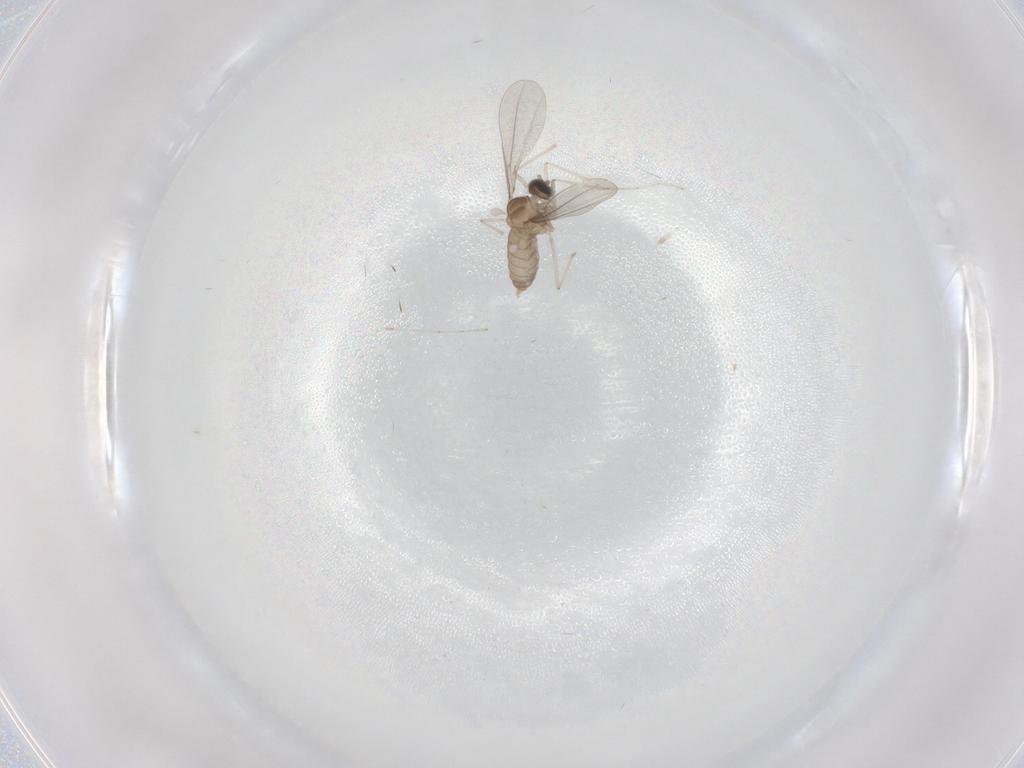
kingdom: Animalia
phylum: Arthropoda
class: Insecta
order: Diptera
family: Cecidomyiidae
